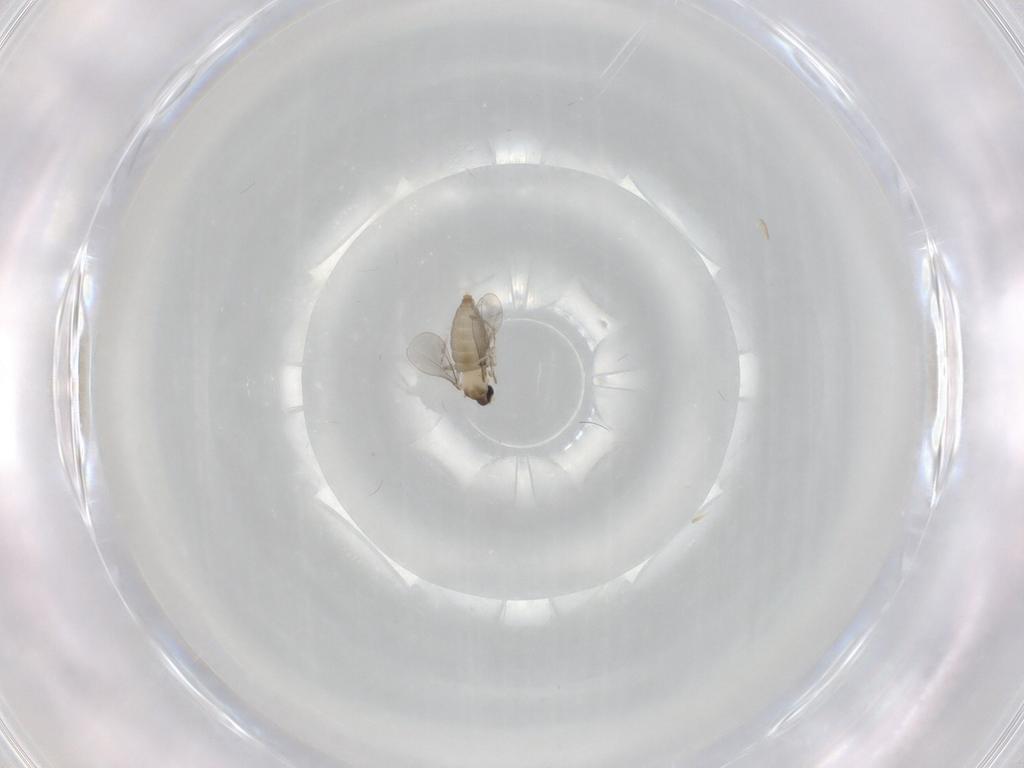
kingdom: Animalia
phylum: Arthropoda
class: Insecta
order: Diptera
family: Cecidomyiidae
